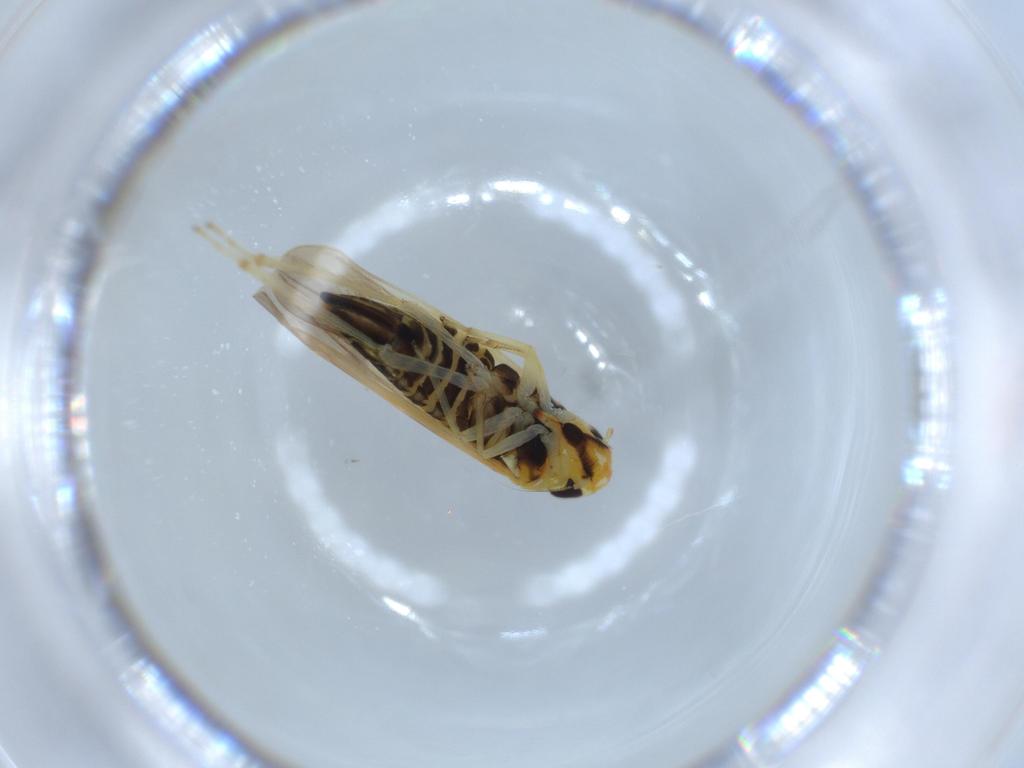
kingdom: Animalia
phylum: Arthropoda
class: Insecta
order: Hemiptera
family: Cicadellidae
